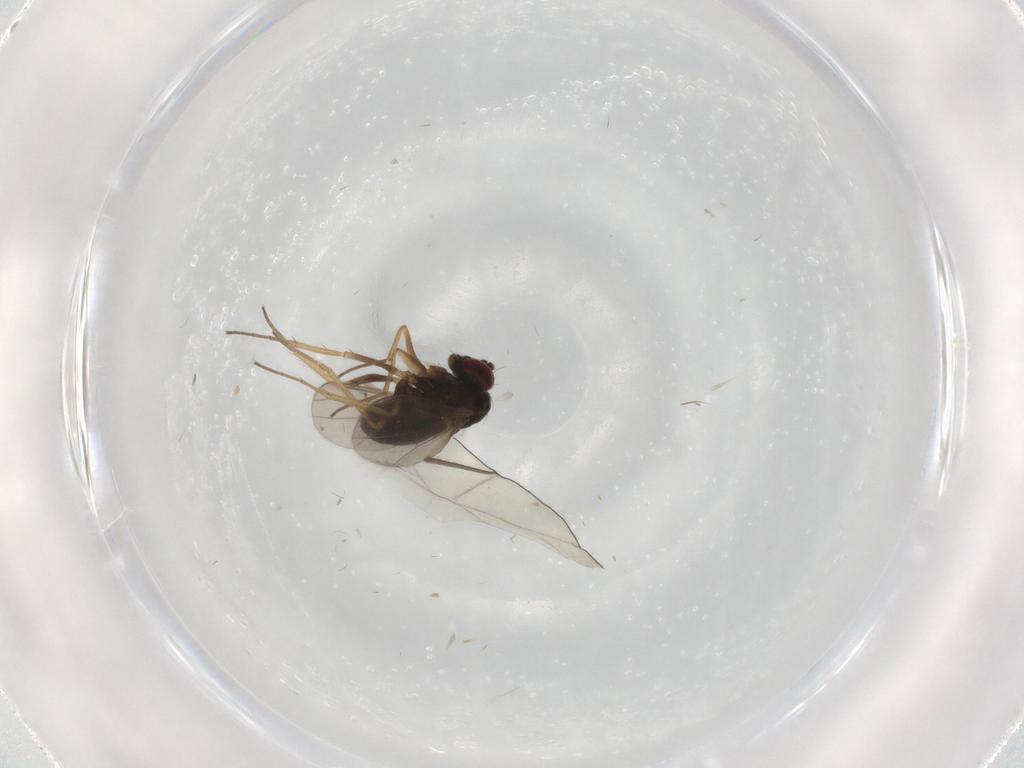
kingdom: Animalia
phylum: Arthropoda
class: Insecta
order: Diptera
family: Dolichopodidae
